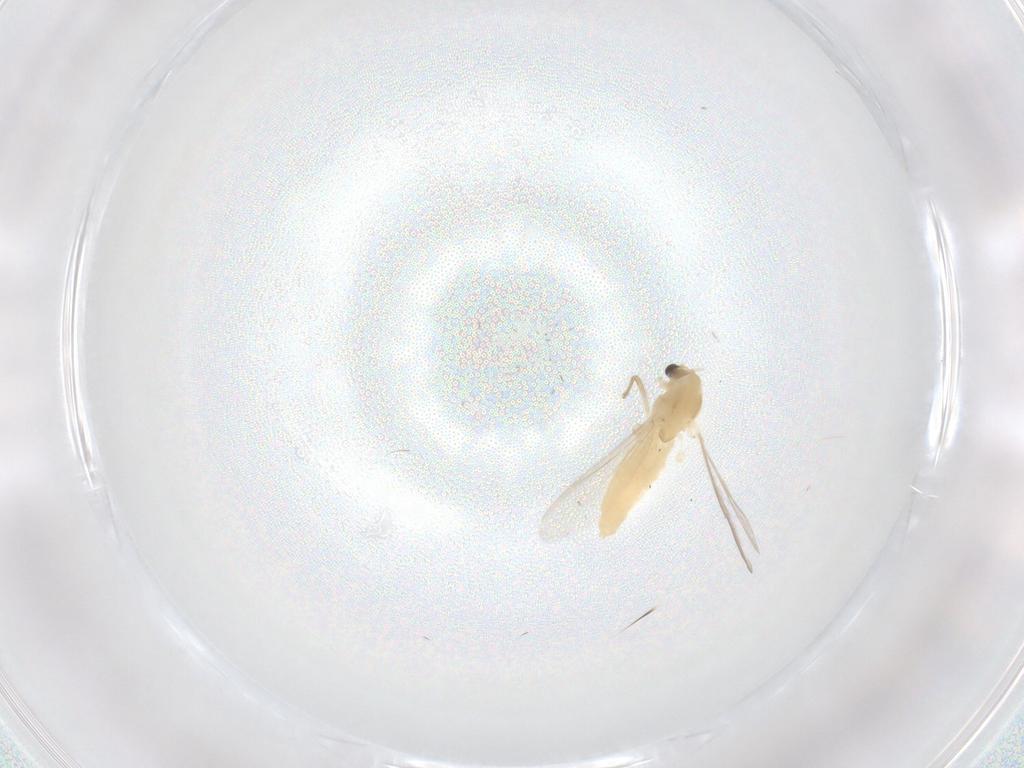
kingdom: Animalia
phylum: Arthropoda
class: Insecta
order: Diptera
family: Chironomidae
